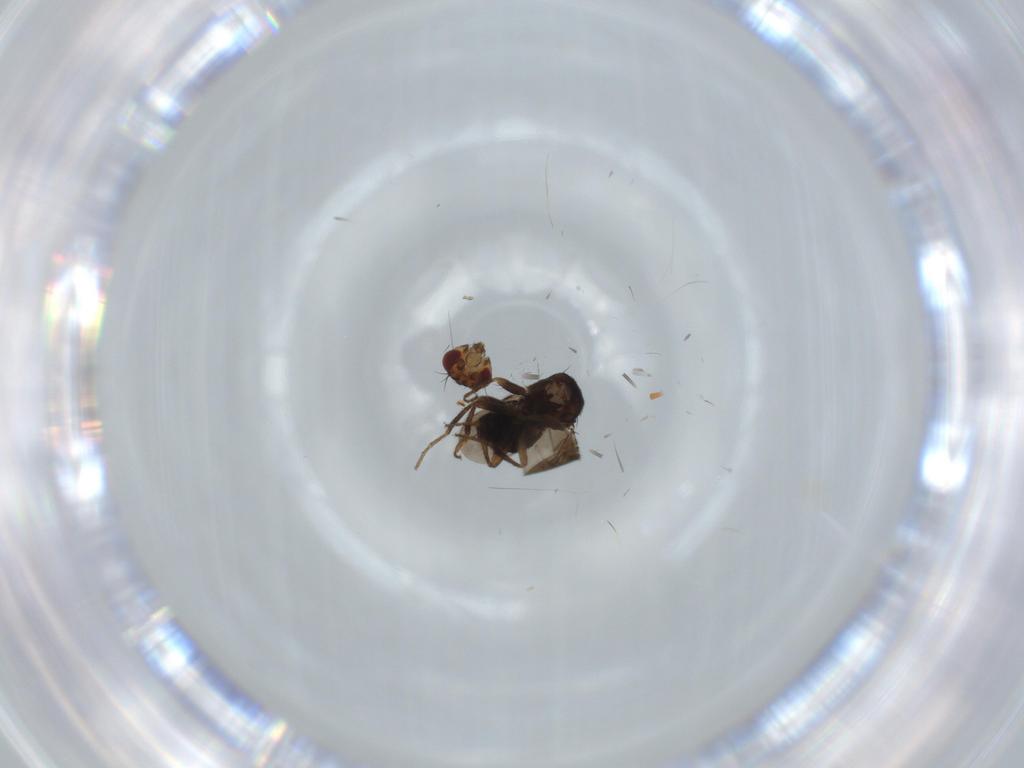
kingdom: Animalia
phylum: Arthropoda
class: Insecta
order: Diptera
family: Sphaeroceridae
